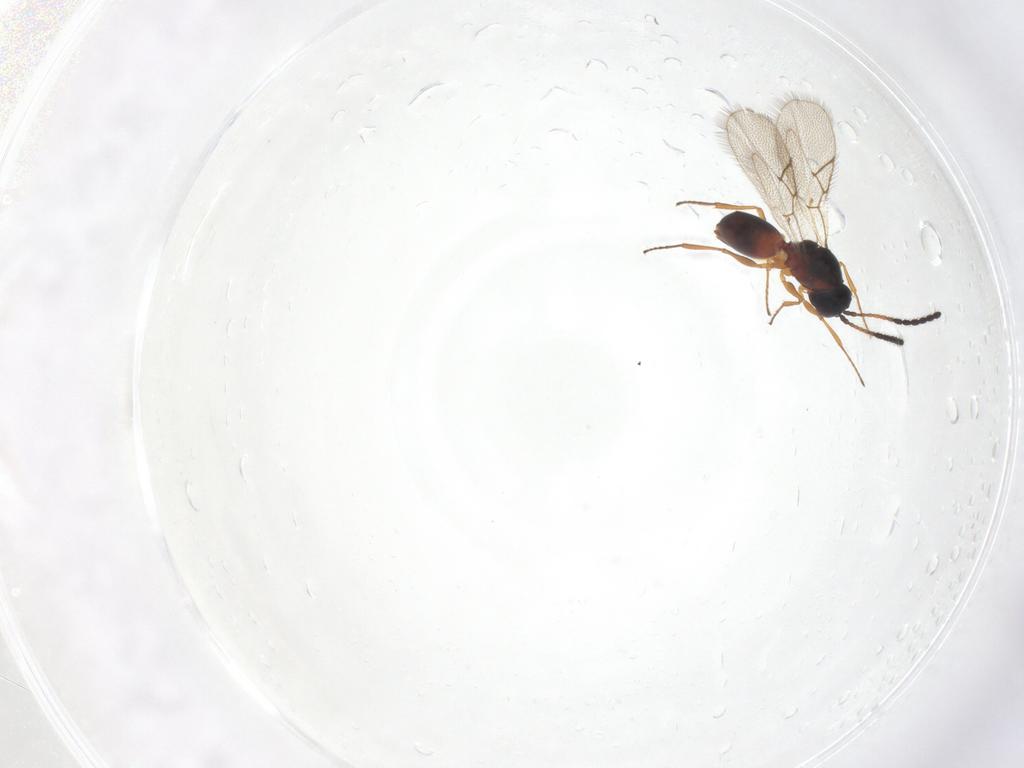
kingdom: Animalia
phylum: Arthropoda
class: Insecta
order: Hymenoptera
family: Figitidae
